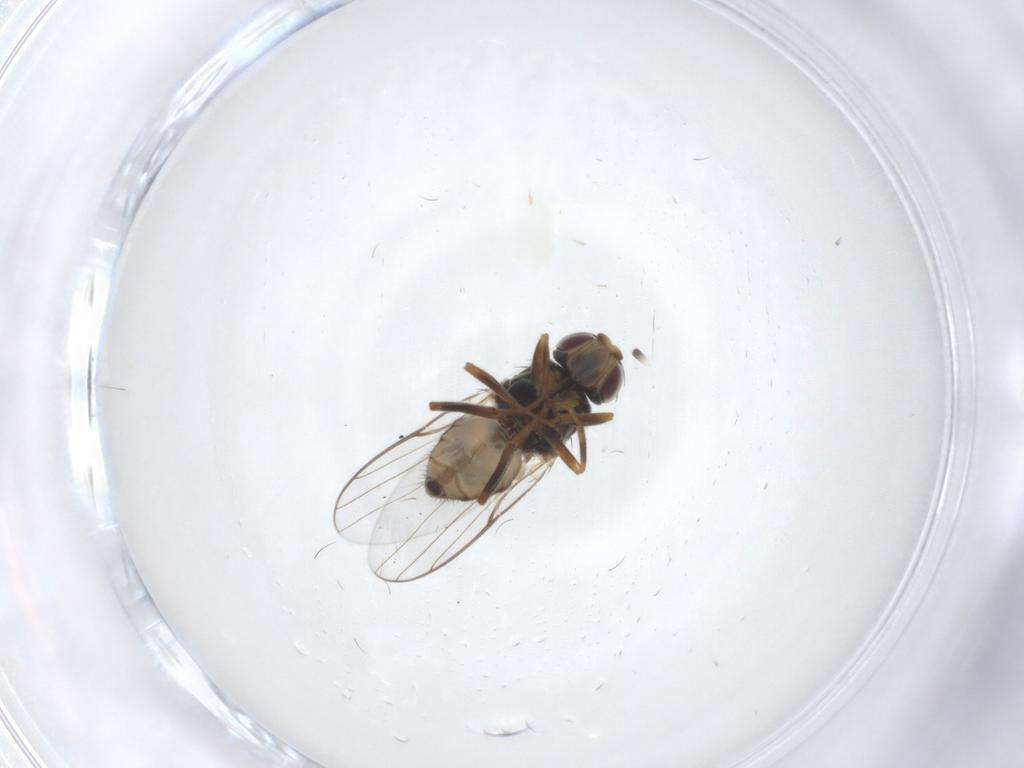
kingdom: Animalia
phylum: Arthropoda
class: Insecta
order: Diptera
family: Chloropidae
